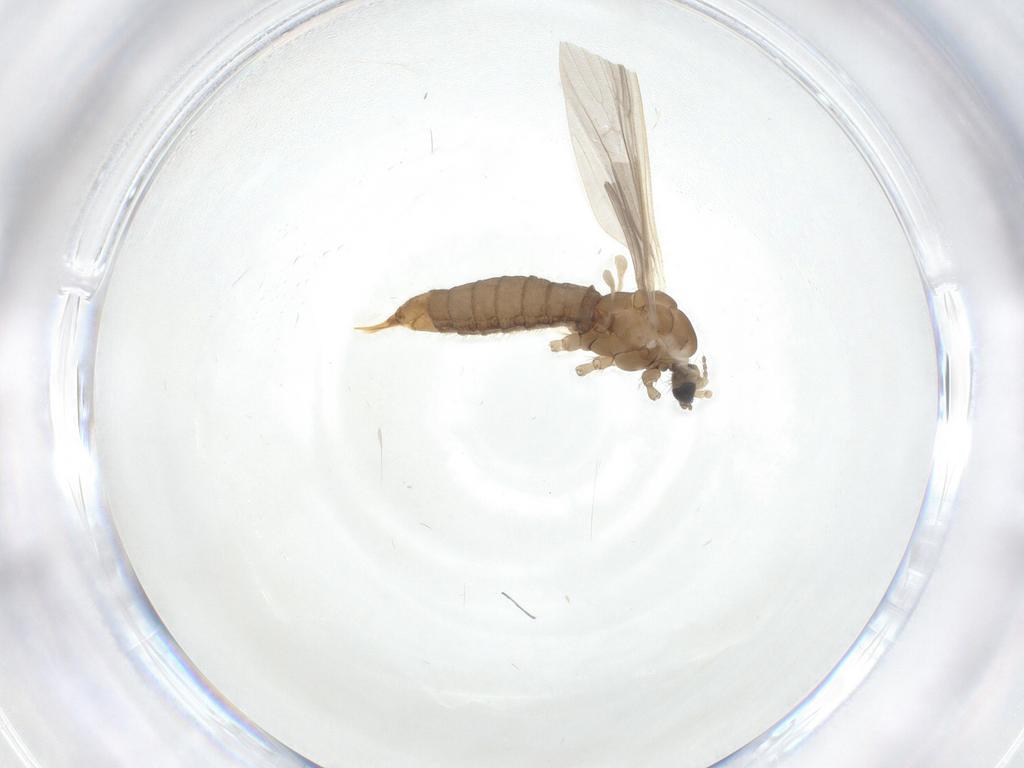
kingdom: Animalia
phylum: Arthropoda
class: Insecta
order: Diptera
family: Limoniidae
